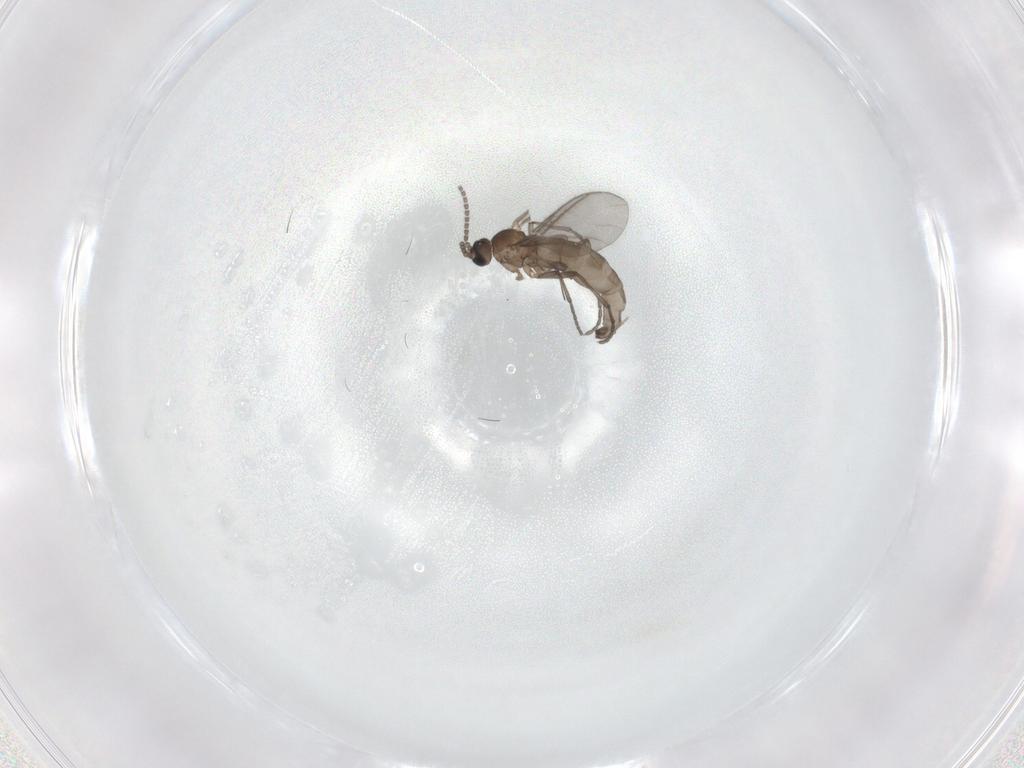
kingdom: Animalia
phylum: Arthropoda
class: Insecta
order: Diptera
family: Sciaridae
